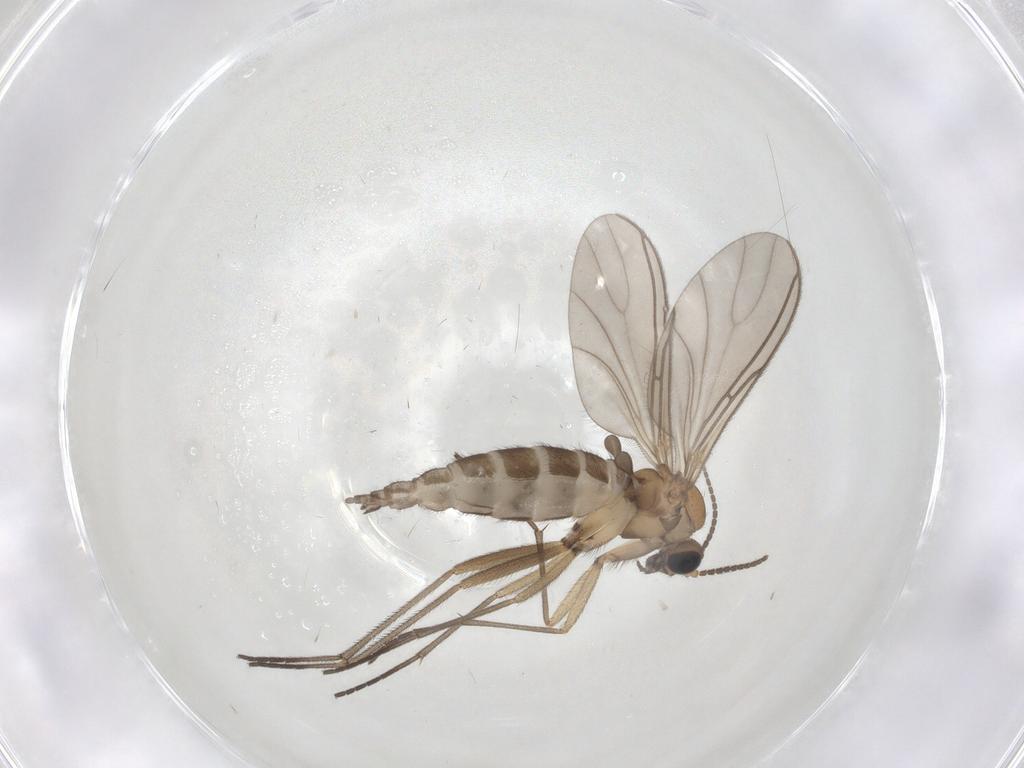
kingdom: Animalia
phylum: Arthropoda
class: Insecta
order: Diptera
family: Sciaridae
